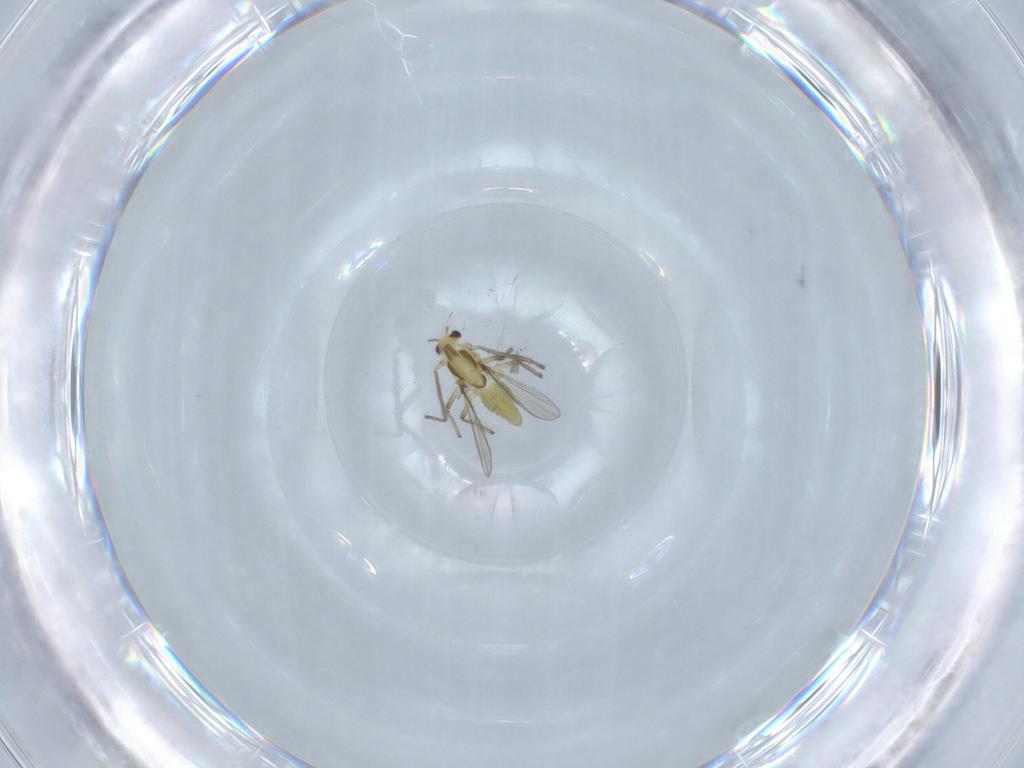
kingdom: Animalia
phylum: Arthropoda
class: Insecta
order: Diptera
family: Chironomidae
